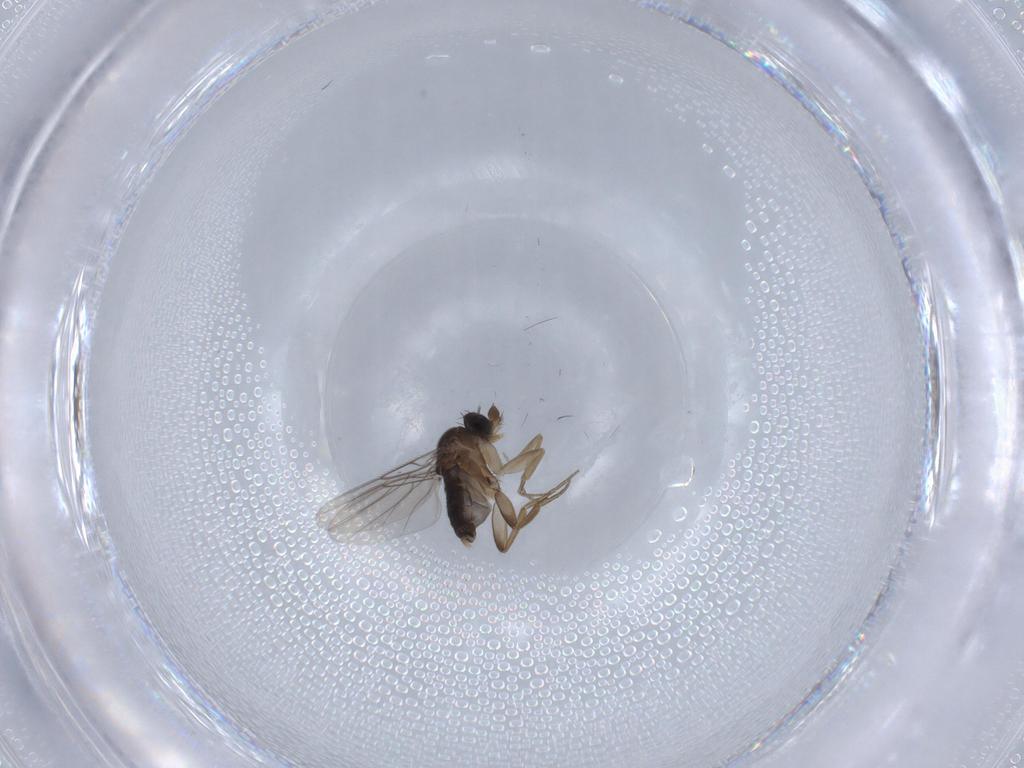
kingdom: Animalia
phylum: Arthropoda
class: Insecta
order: Diptera
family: Phoridae
